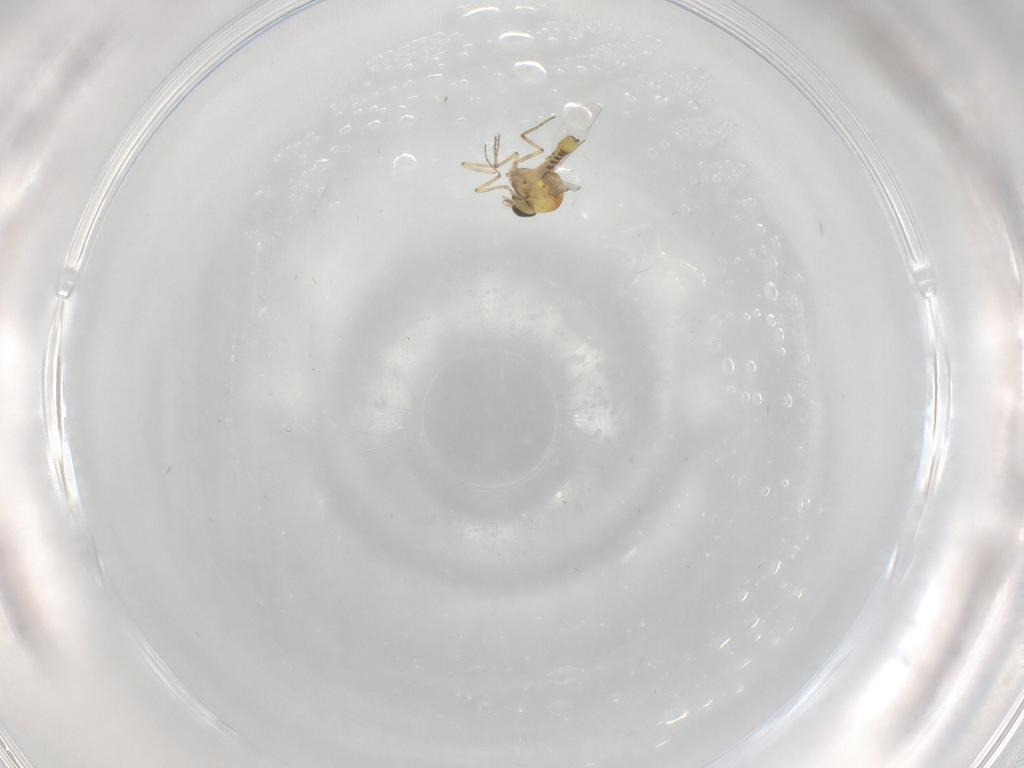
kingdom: Animalia
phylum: Arthropoda
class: Insecta
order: Diptera
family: Ceratopogonidae
